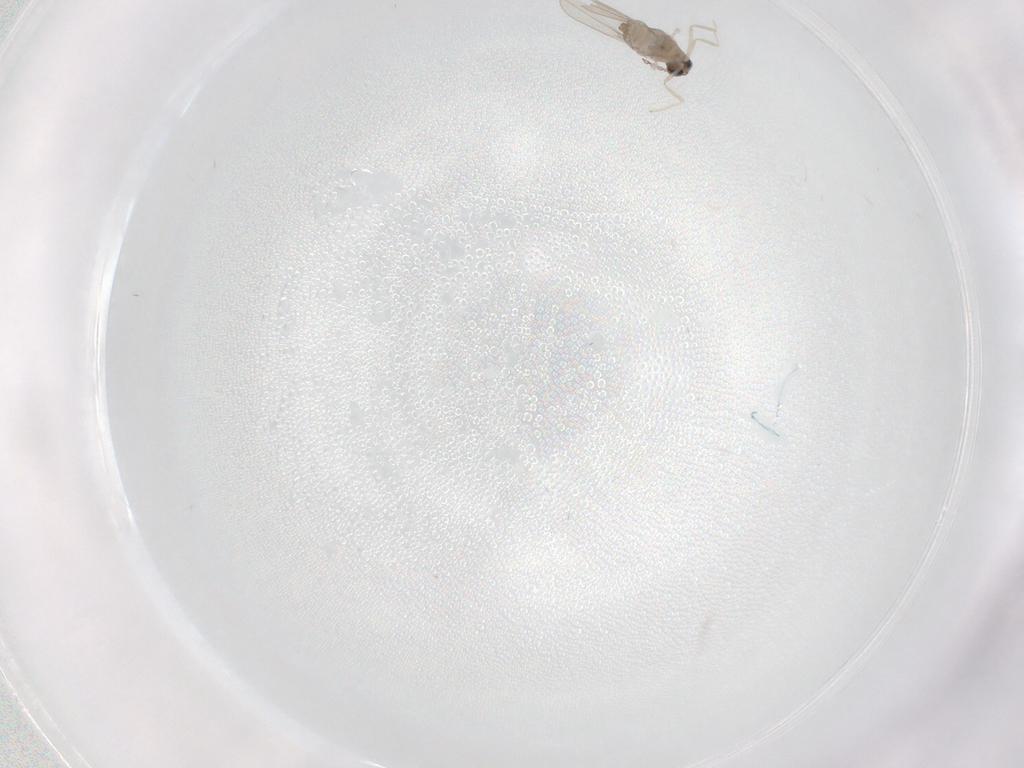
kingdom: Animalia
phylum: Arthropoda
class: Insecta
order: Diptera
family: Cecidomyiidae
